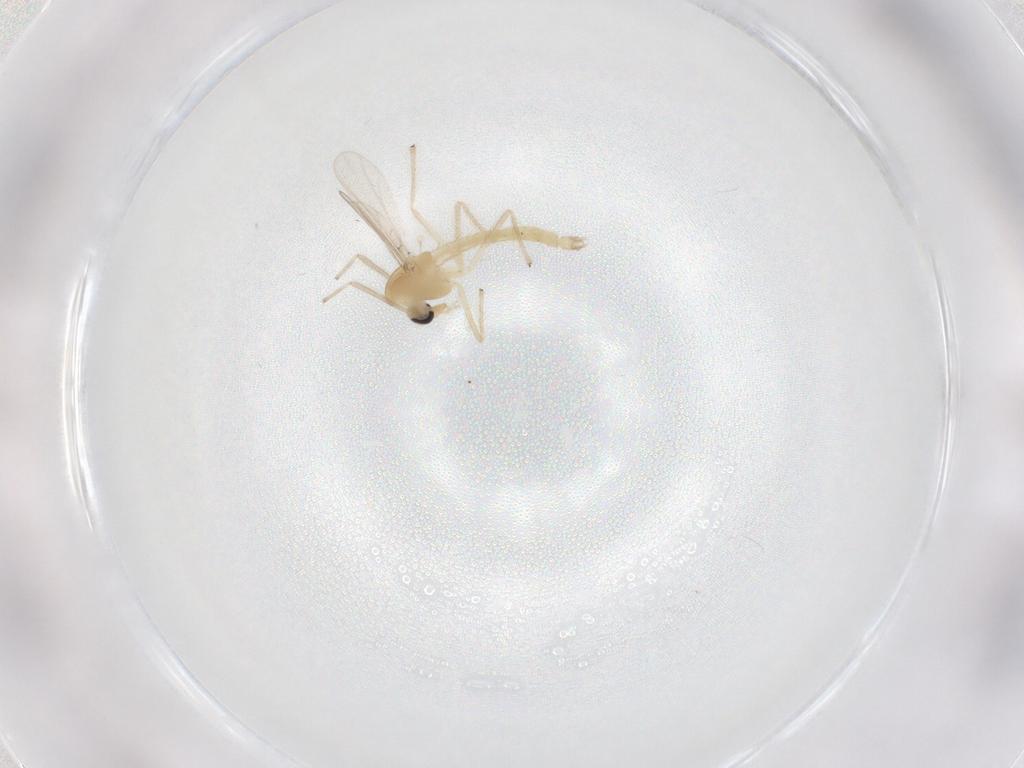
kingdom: Animalia
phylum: Arthropoda
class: Insecta
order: Diptera
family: Chironomidae
